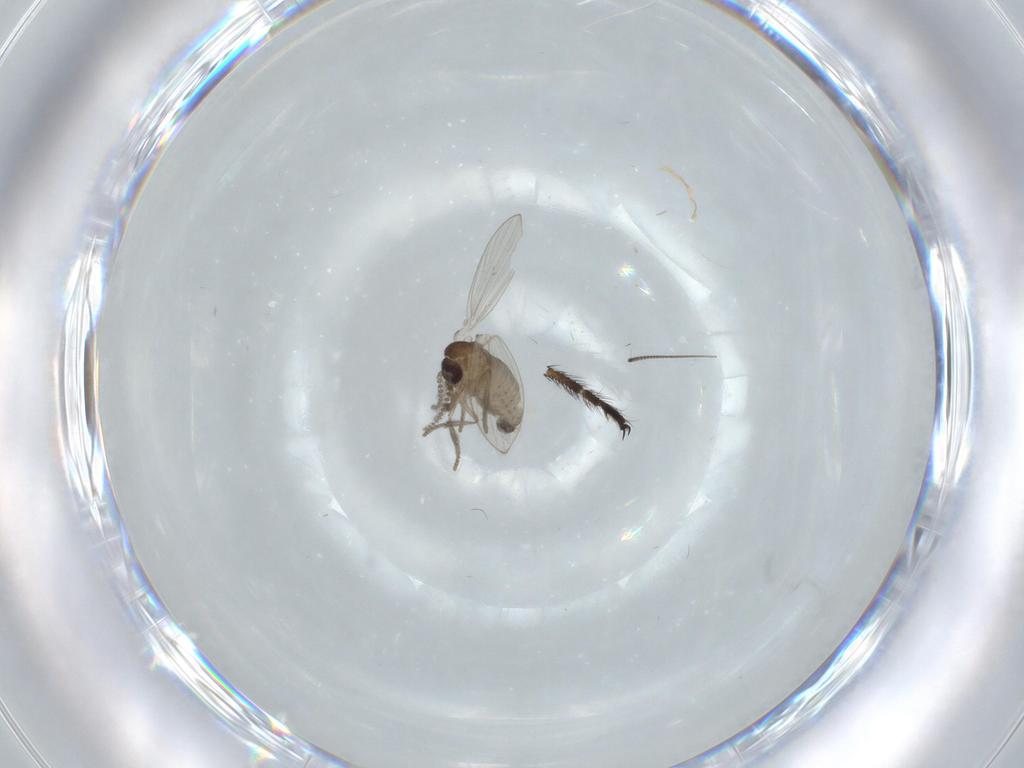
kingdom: Animalia
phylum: Arthropoda
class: Insecta
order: Diptera
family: Psychodidae
